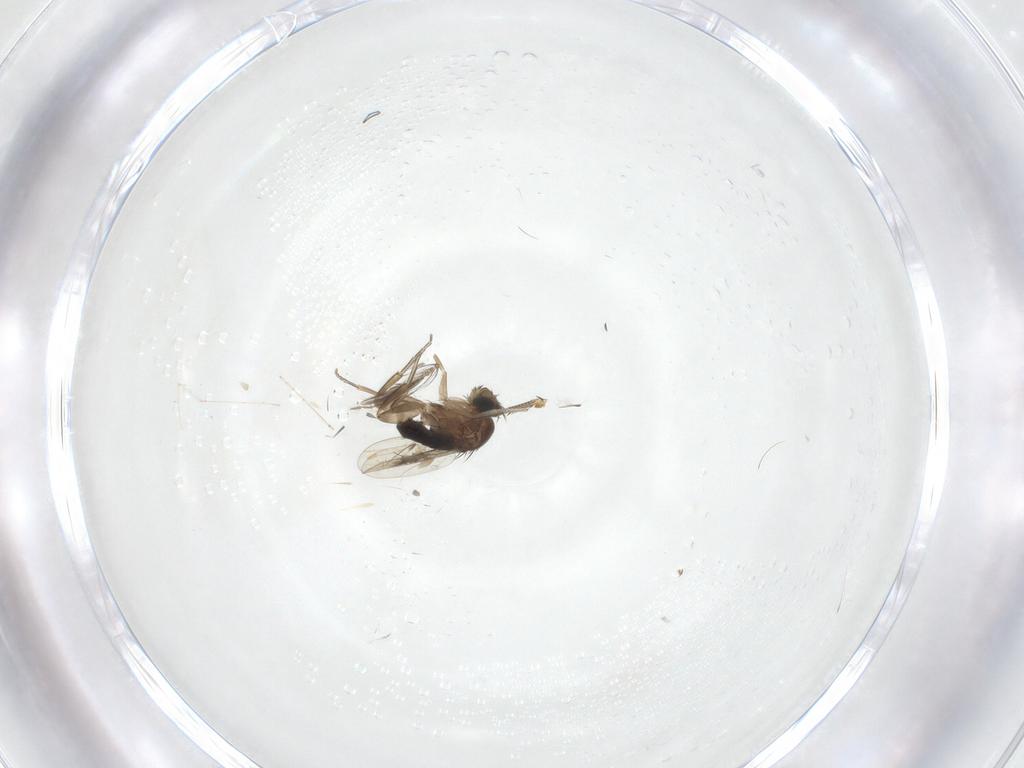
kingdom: Animalia
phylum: Arthropoda
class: Insecta
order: Diptera
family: Phoridae
